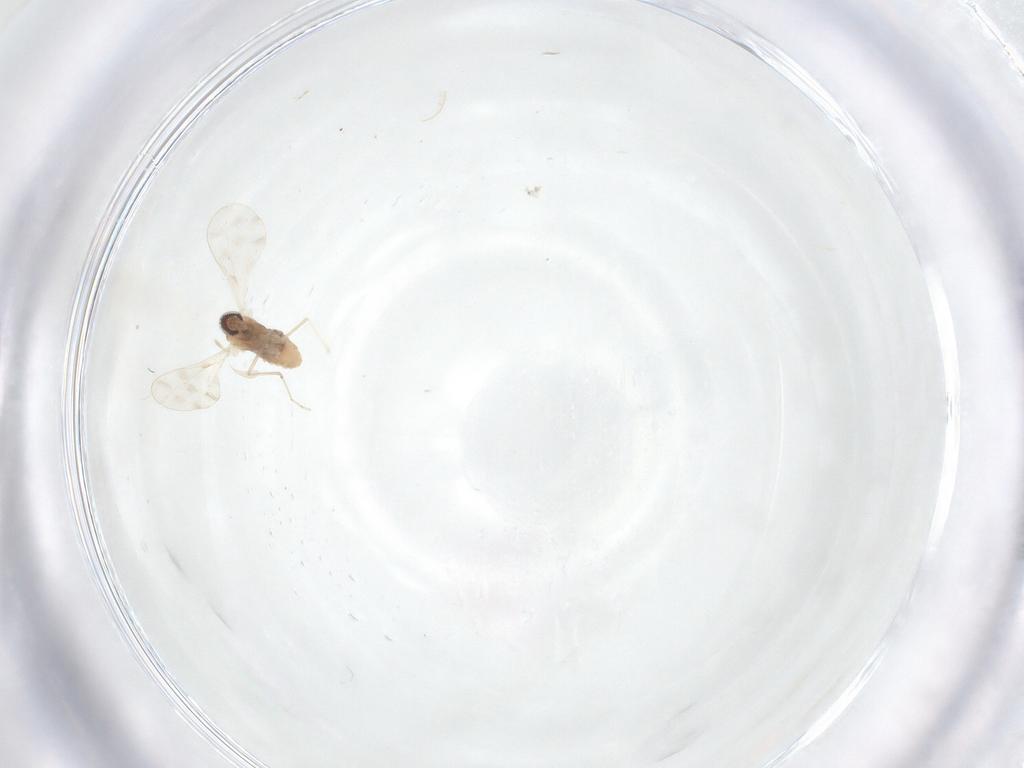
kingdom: Animalia
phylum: Arthropoda
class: Insecta
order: Diptera
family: Cecidomyiidae
